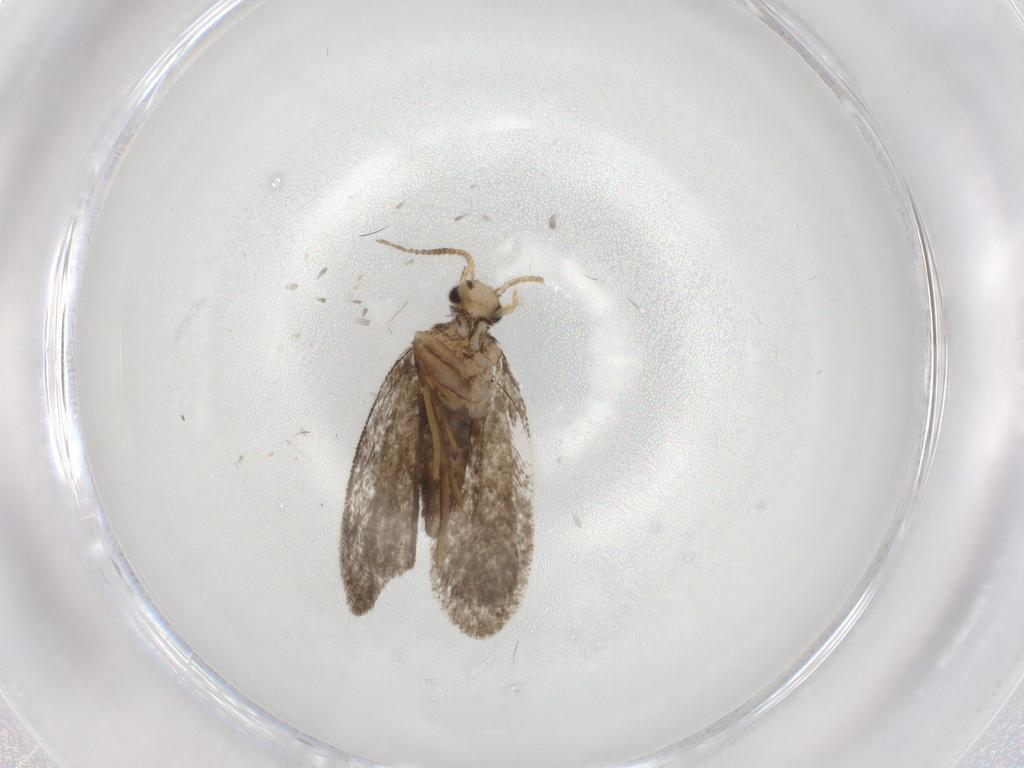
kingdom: Animalia
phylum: Arthropoda
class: Insecta
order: Lepidoptera
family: Psychidae
